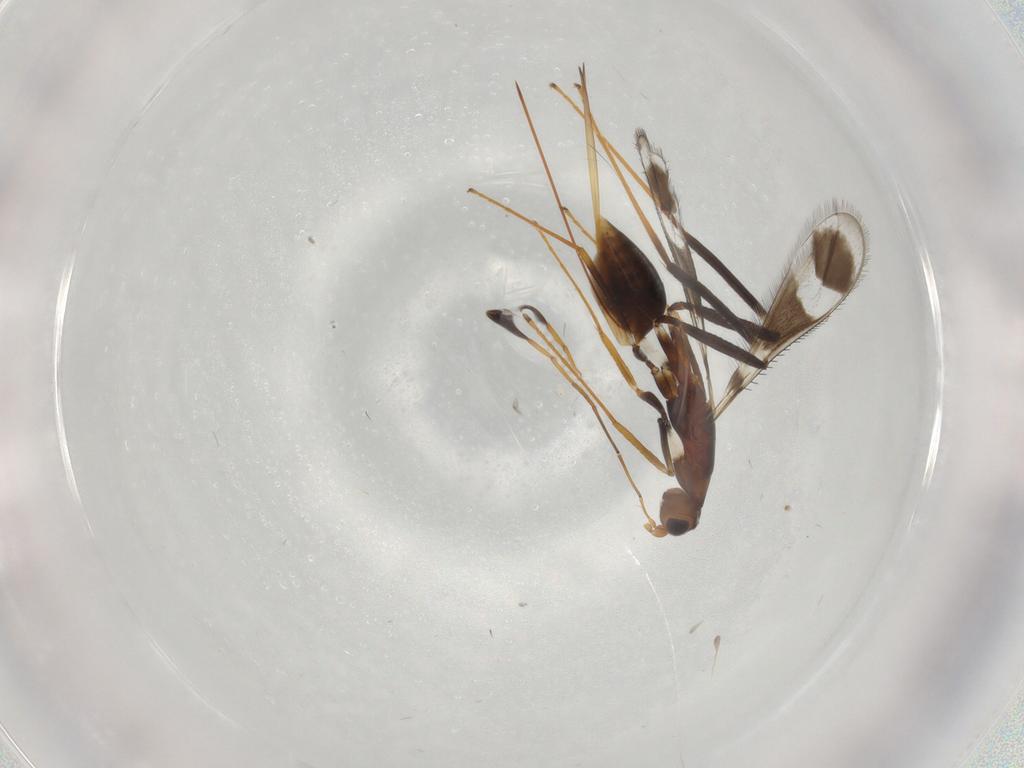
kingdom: Animalia
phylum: Arthropoda
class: Insecta
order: Hymenoptera
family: Mymaridae
